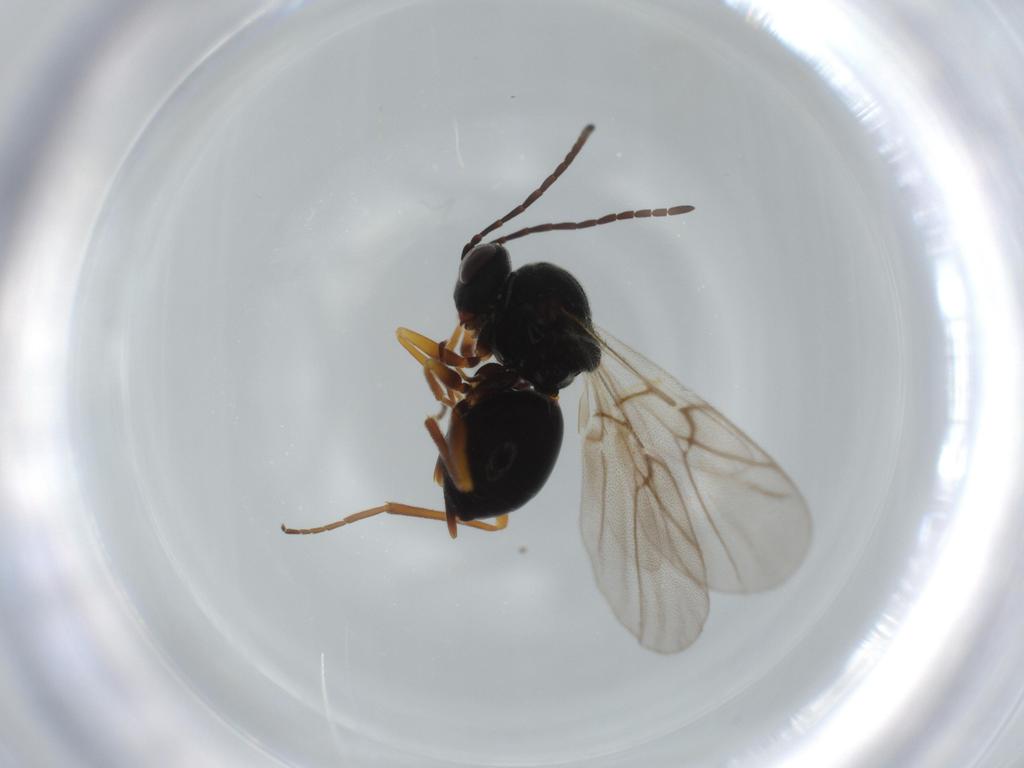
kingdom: Animalia
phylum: Arthropoda
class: Insecta
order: Hymenoptera
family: Cynipidae
